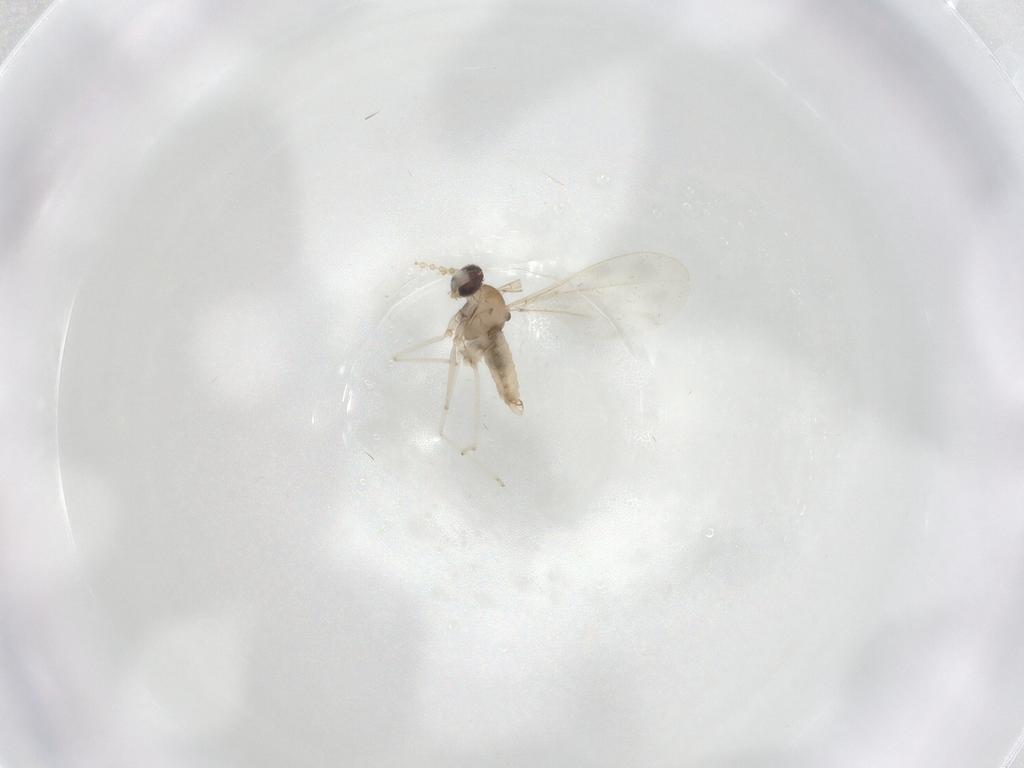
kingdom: Animalia
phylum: Arthropoda
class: Insecta
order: Diptera
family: Cecidomyiidae
